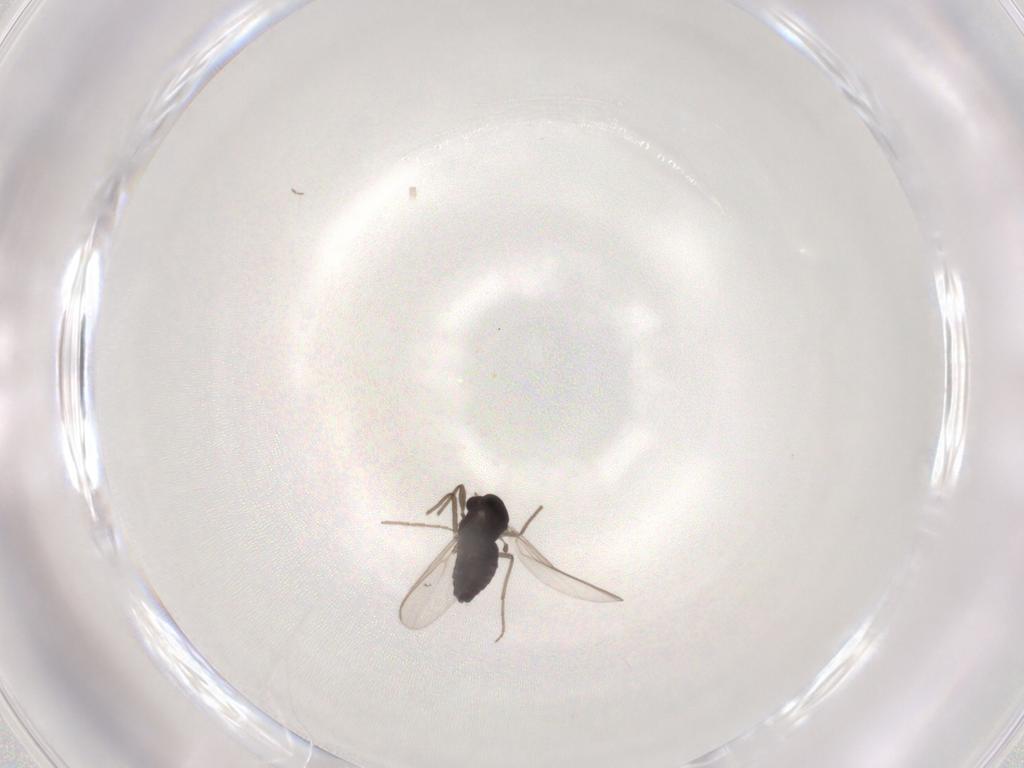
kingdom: Animalia
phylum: Arthropoda
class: Insecta
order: Diptera
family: Chironomidae
